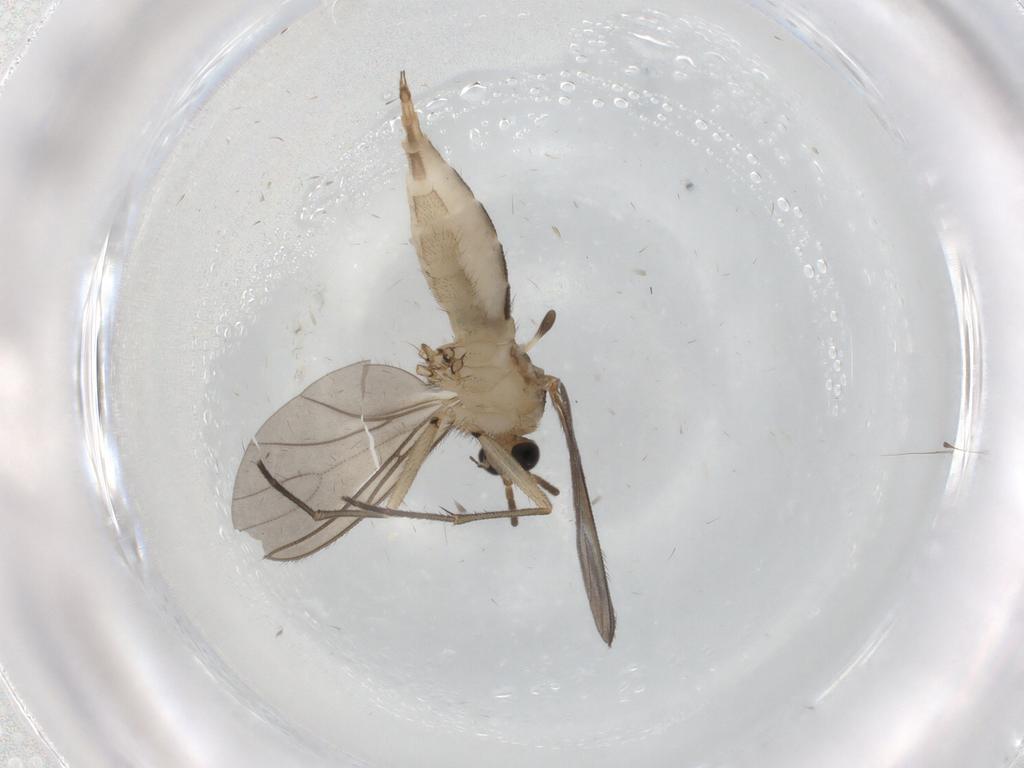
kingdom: Animalia
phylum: Arthropoda
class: Insecta
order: Diptera
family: Sciaridae
